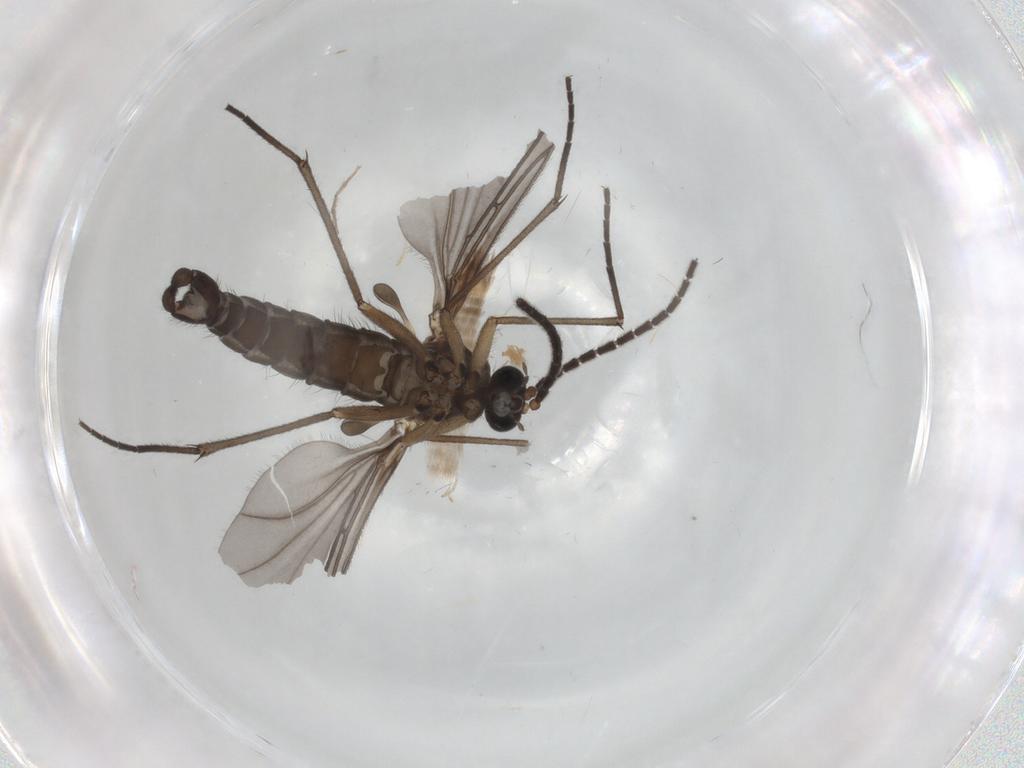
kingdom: Animalia
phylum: Arthropoda
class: Insecta
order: Diptera
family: Sciaridae
